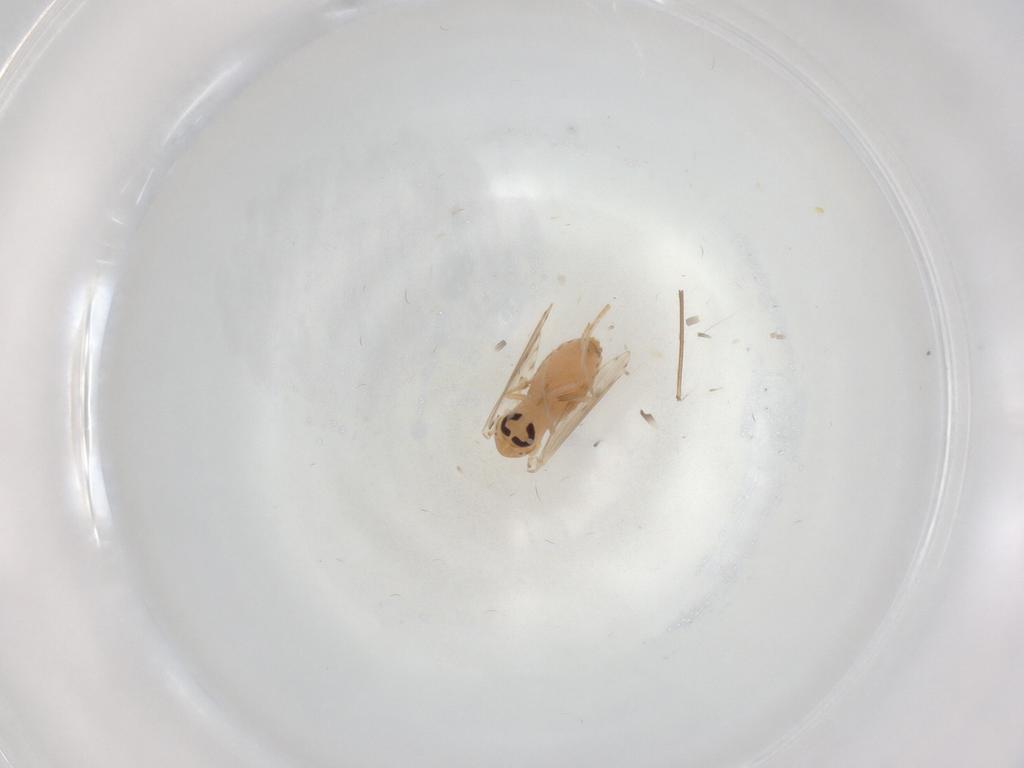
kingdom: Animalia
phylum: Arthropoda
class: Insecta
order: Diptera
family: Psychodidae
